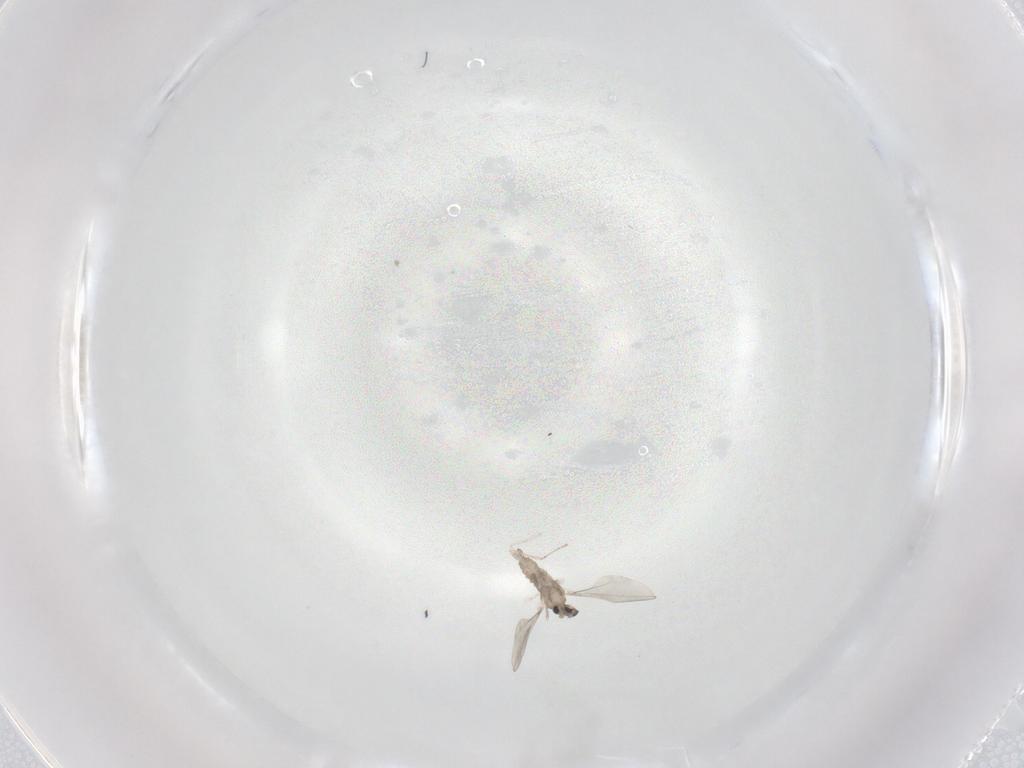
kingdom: Animalia
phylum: Arthropoda
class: Insecta
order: Diptera
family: Cecidomyiidae
